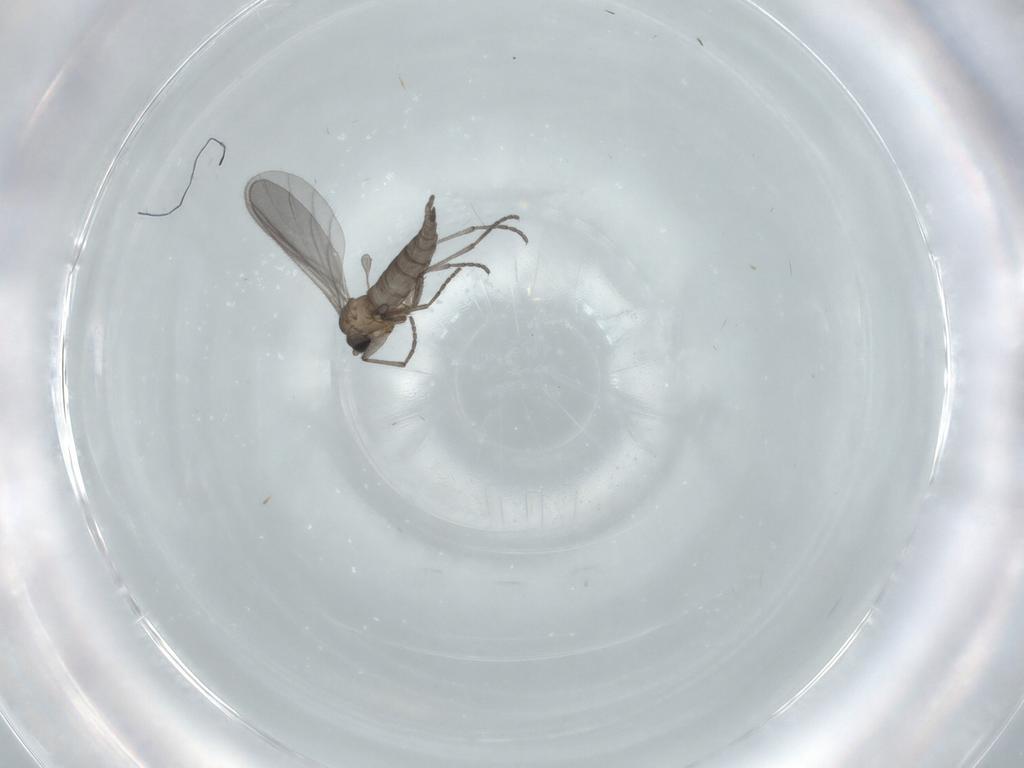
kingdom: Animalia
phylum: Arthropoda
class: Insecta
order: Diptera
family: Sciaridae
